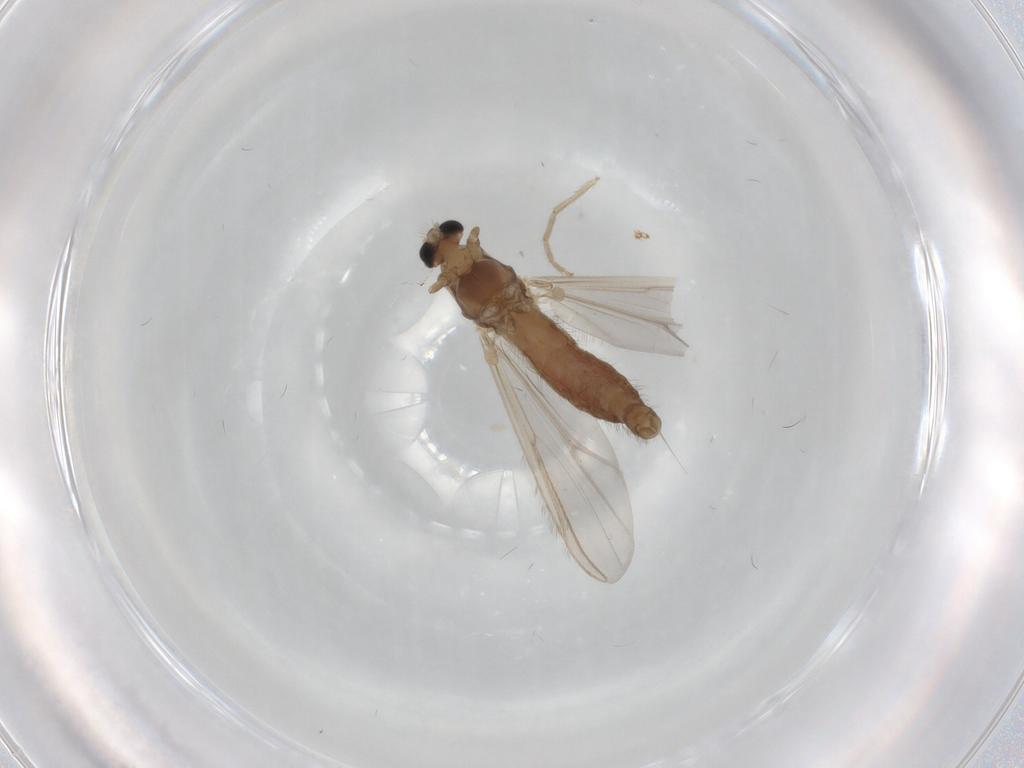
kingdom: Animalia
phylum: Arthropoda
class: Insecta
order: Diptera
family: Chironomidae
